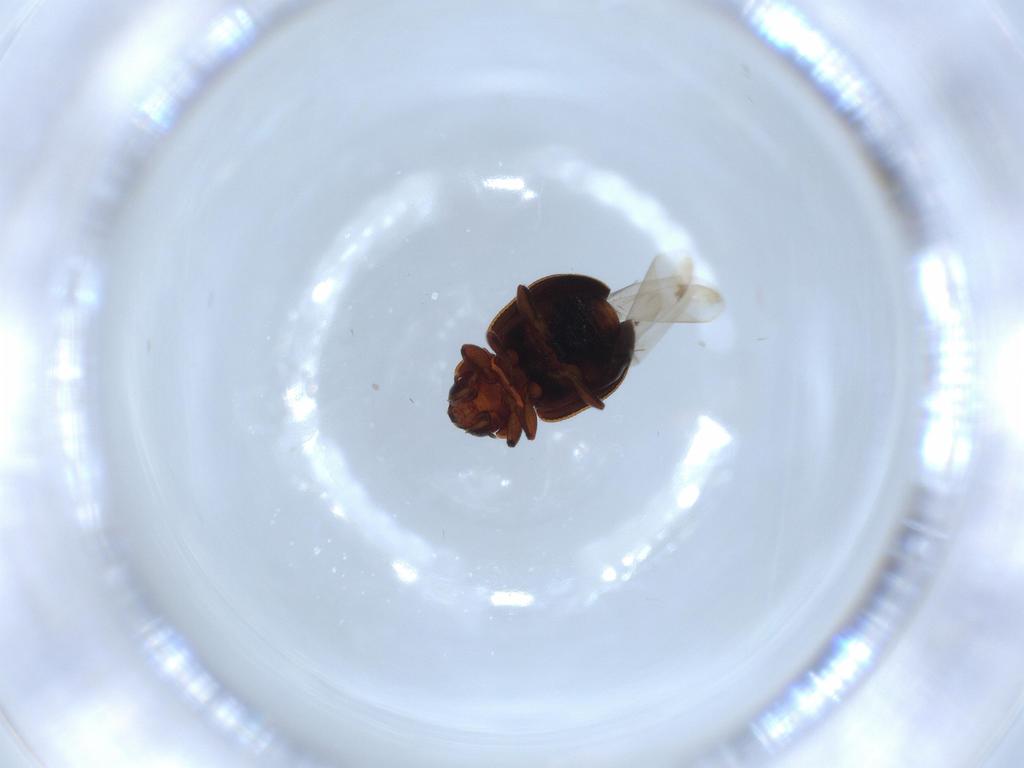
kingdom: Animalia
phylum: Arthropoda
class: Insecta
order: Coleoptera
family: Coccinellidae
